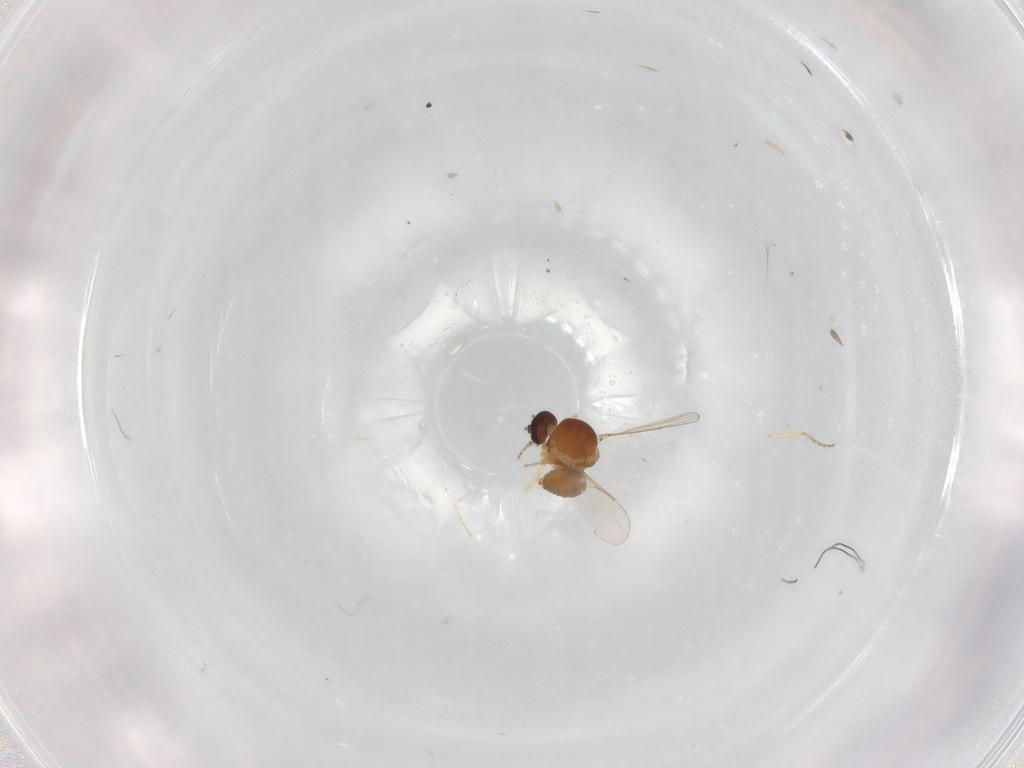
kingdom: Animalia
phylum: Arthropoda
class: Insecta
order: Diptera
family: Ceratopogonidae
